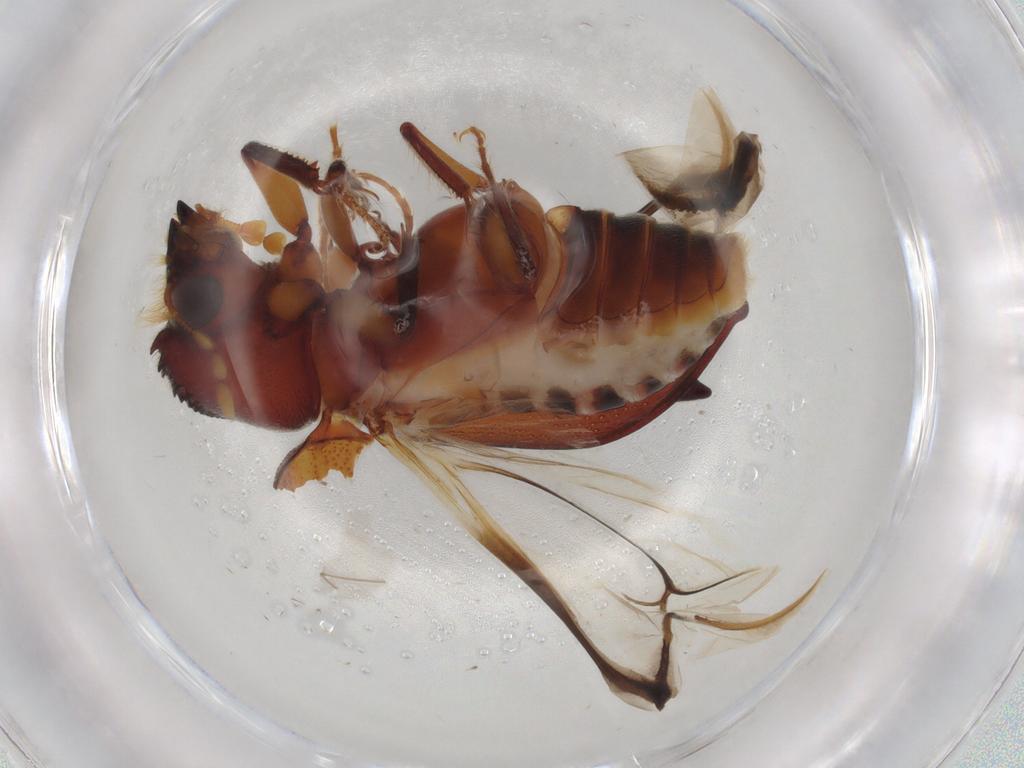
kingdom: Animalia
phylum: Arthropoda
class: Insecta
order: Coleoptera
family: Bostrichidae
